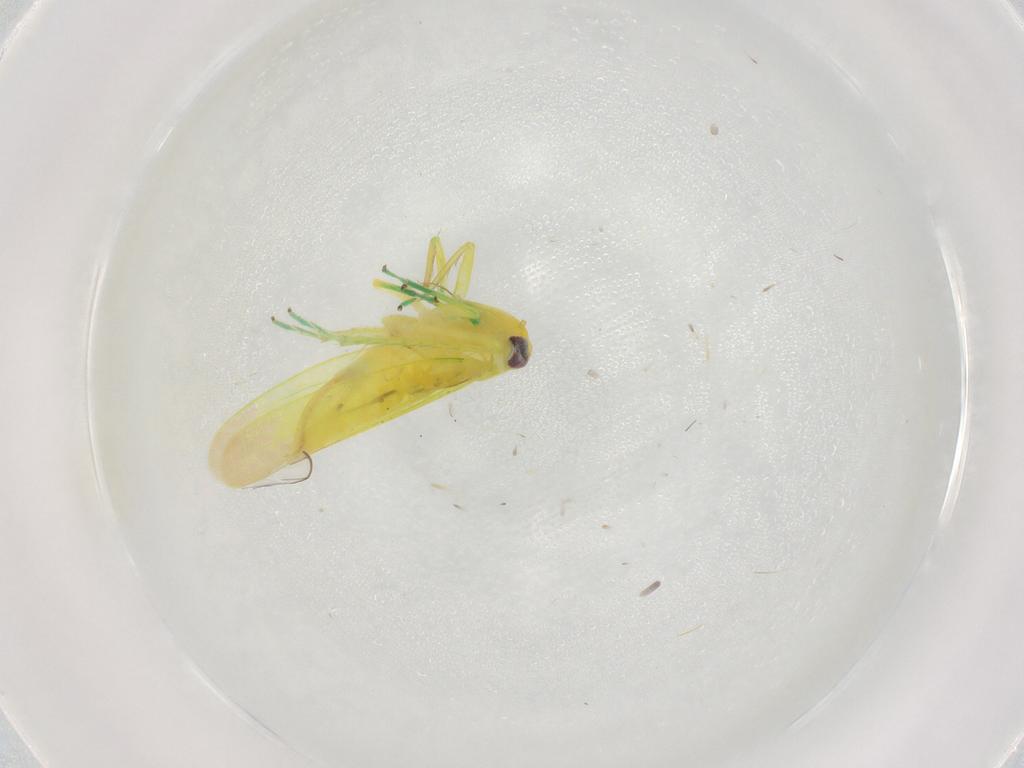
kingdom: Animalia
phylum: Arthropoda
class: Insecta
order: Hemiptera
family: Cicadellidae
